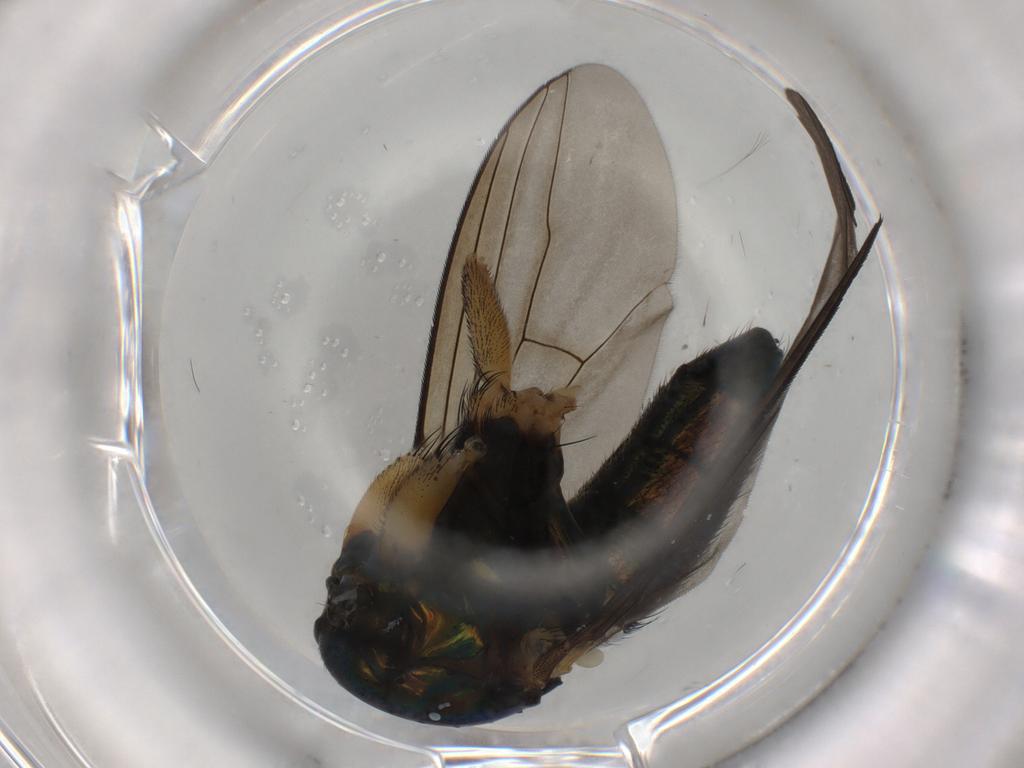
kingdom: Animalia
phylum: Arthropoda
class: Insecta
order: Diptera
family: Dolichopodidae
